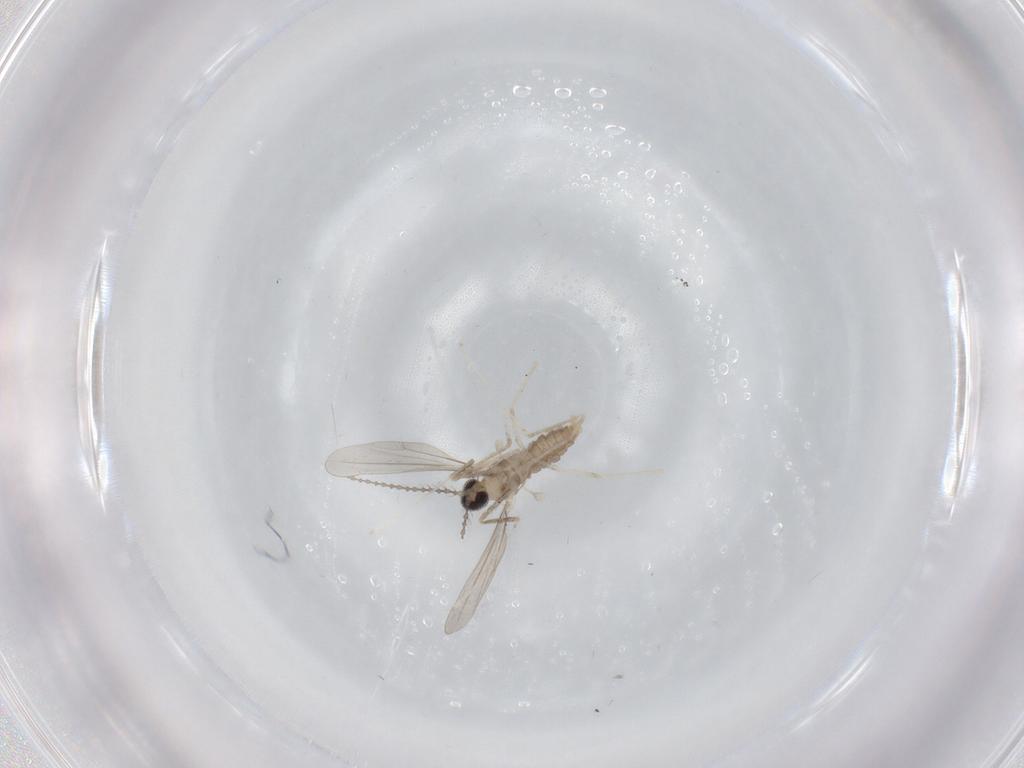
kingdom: Animalia
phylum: Arthropoda
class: Insecta
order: Diptera
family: Cecidomyiidae
